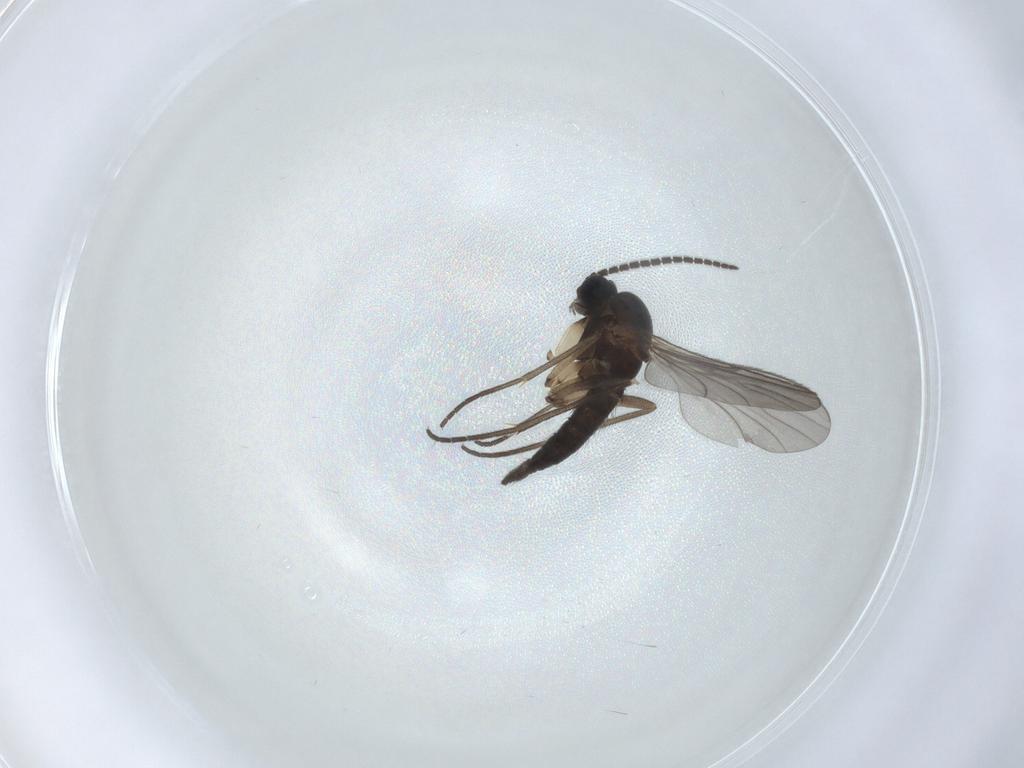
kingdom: Animalia
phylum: Arthropoda
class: Insecta
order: Diptera
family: Sciaridae
